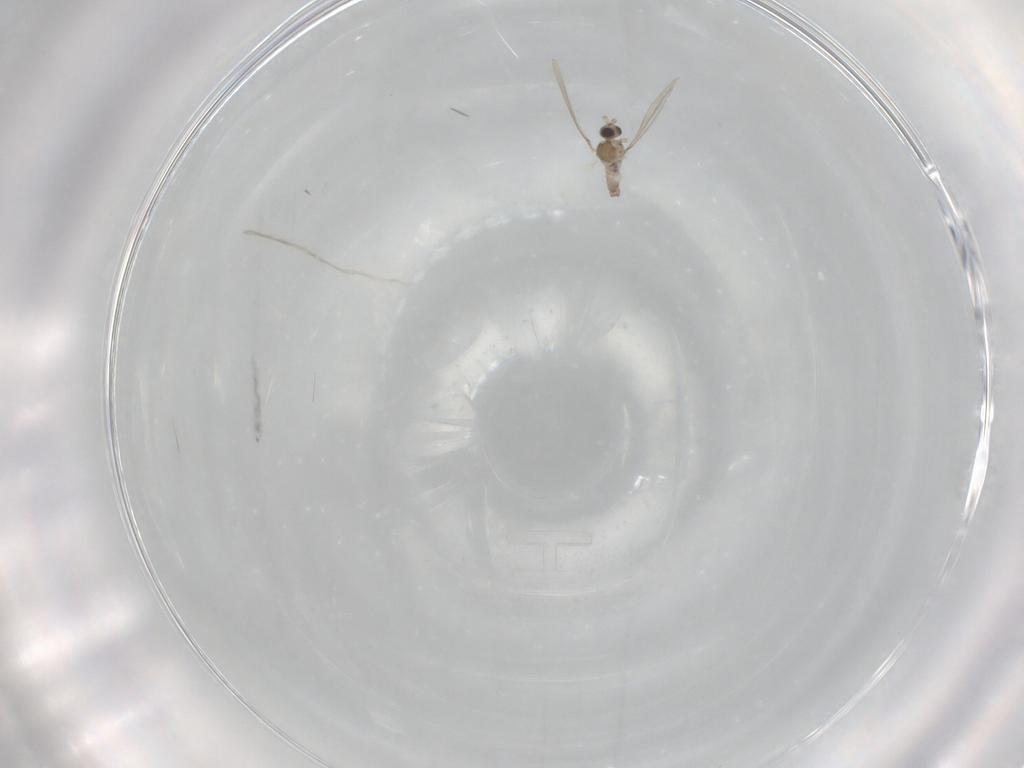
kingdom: Animalia
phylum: Arthropoda
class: Insecta
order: Diptera
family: Cecidomyiidae
